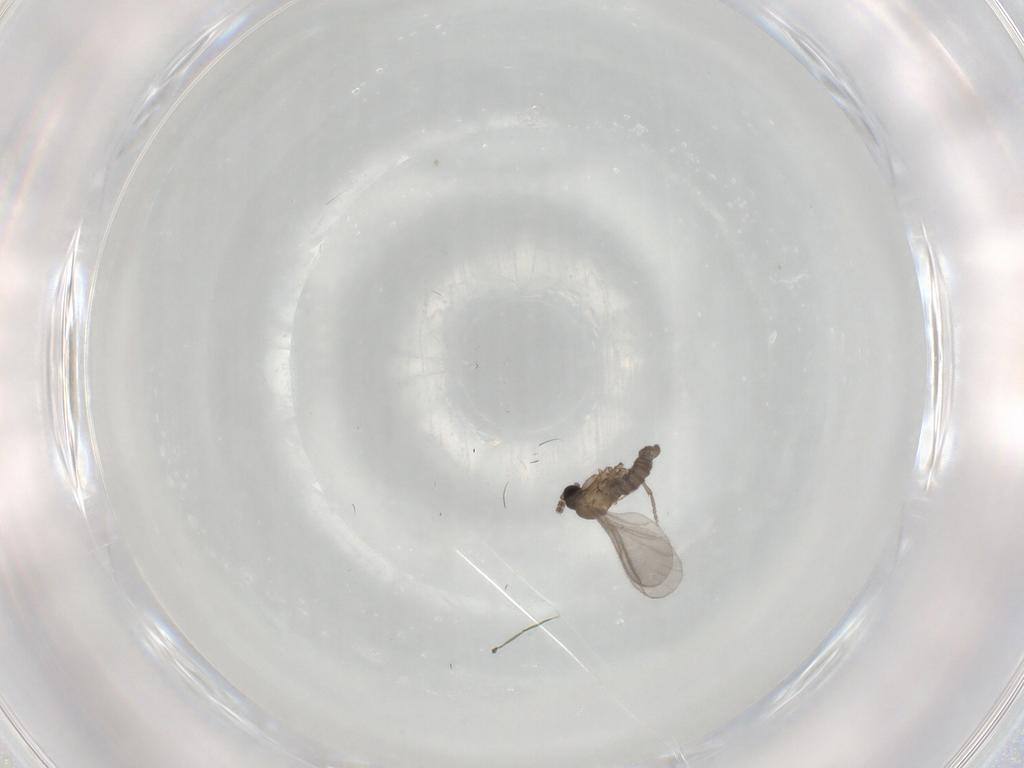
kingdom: Animalia
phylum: Arthropoda
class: Insecta
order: Diptera
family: Sciaridae
